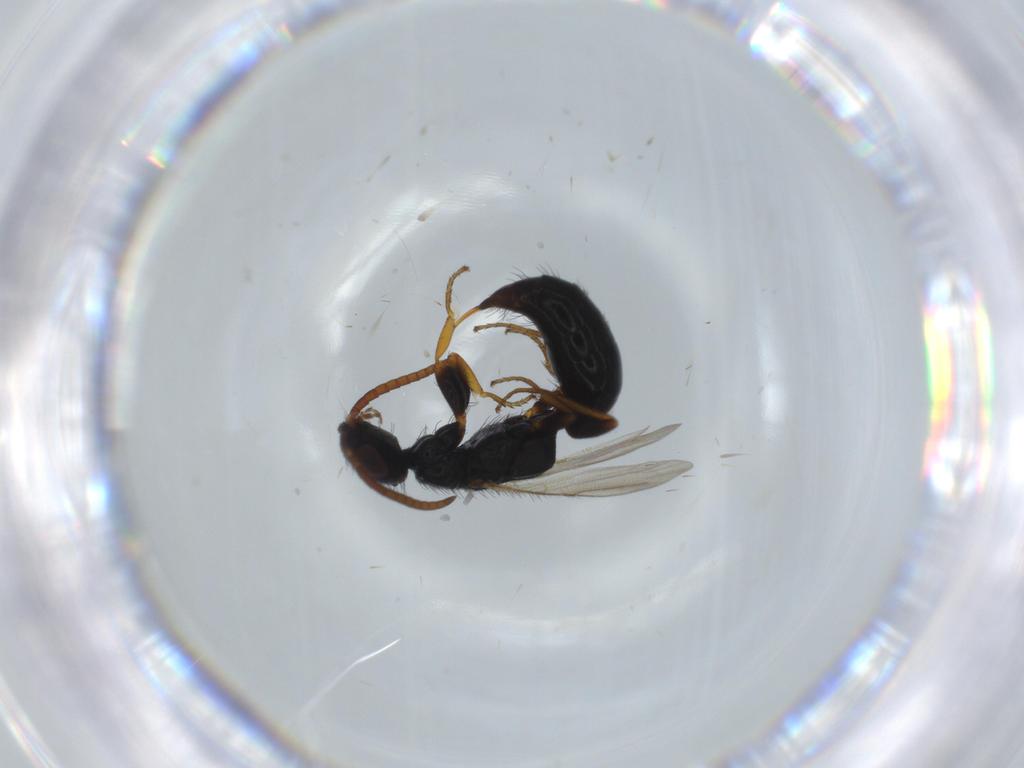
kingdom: Animalia
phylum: Arthropoda
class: Insecta
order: Hymenoptera
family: Bethylidae
